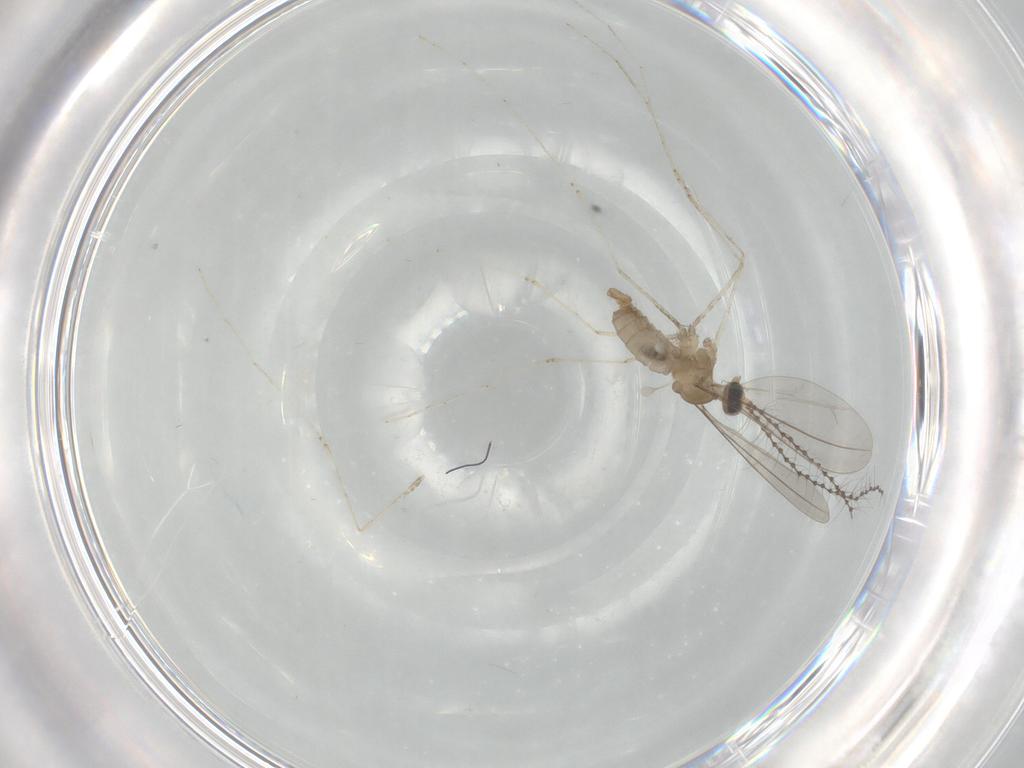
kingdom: Animalia
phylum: Arthropoda
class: Insecta
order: Diptera
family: Cecidomyiidae
